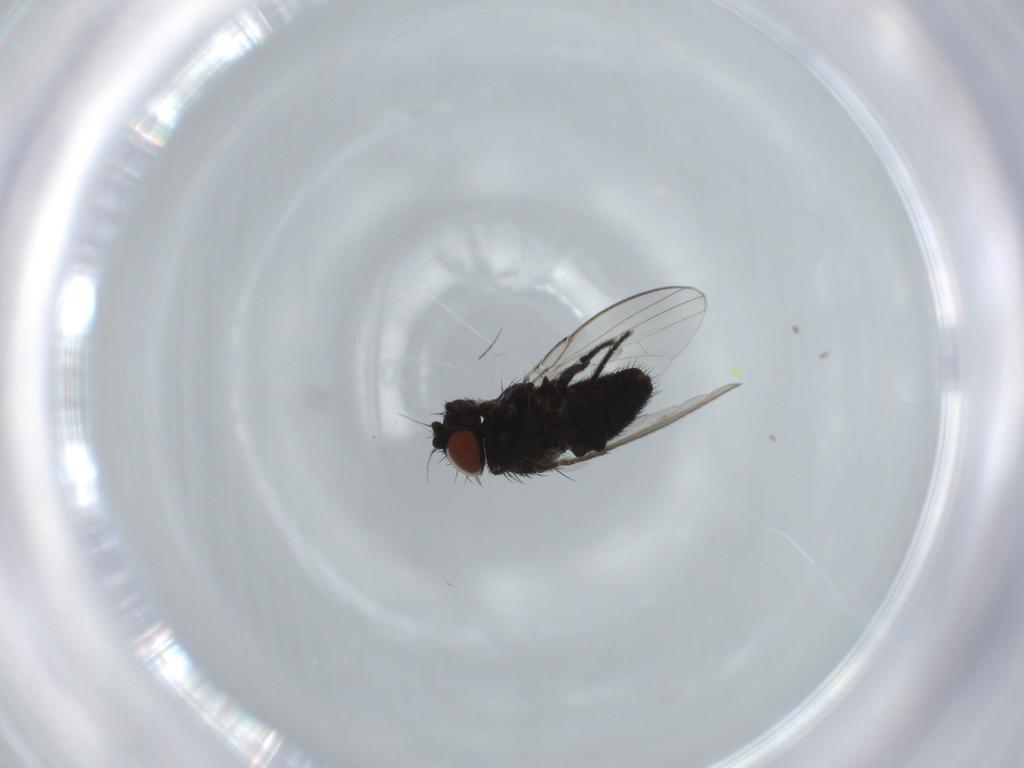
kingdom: Animalia
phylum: Arthropoda
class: Insecta
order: Diptera
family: Milichiidae
